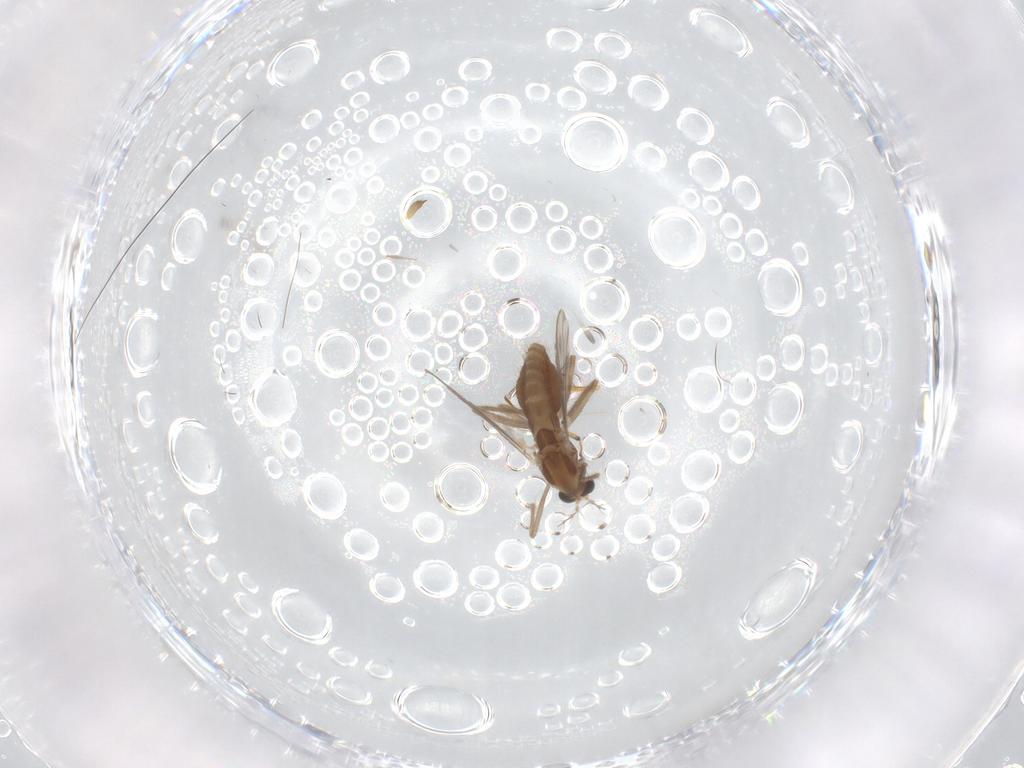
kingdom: Animalia
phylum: Arthropoda
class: Insecta
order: Diptera
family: Chironomidae
